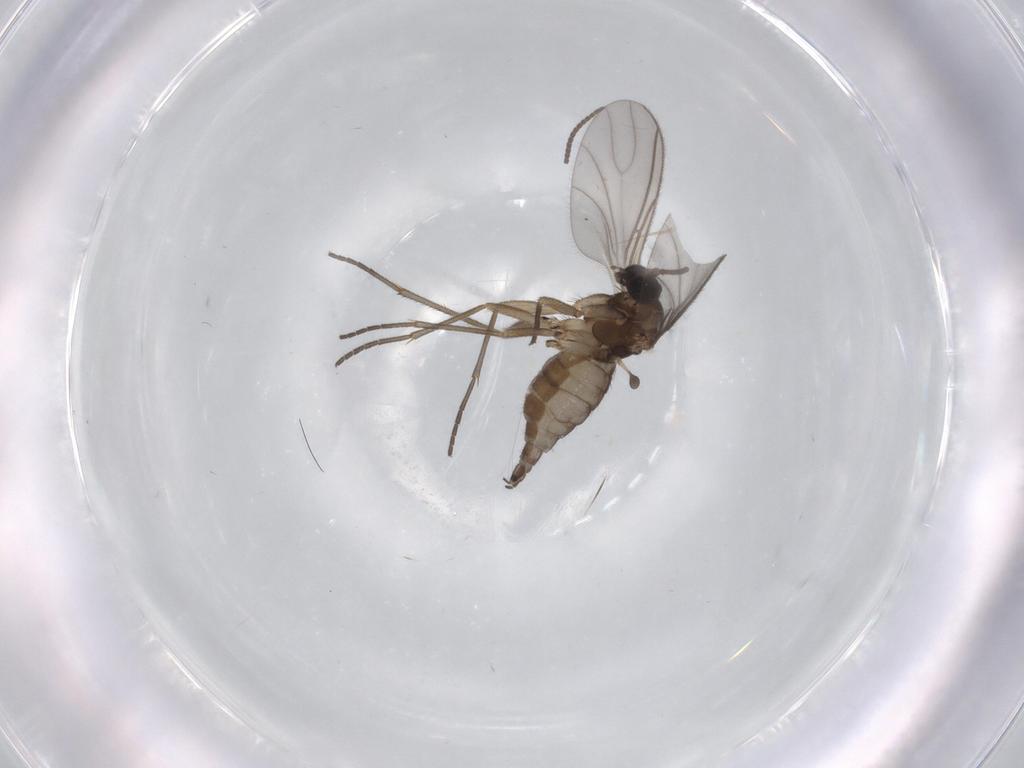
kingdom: Animalia
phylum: Arthropoda
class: Insecta
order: Diptera
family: Sciaridae
